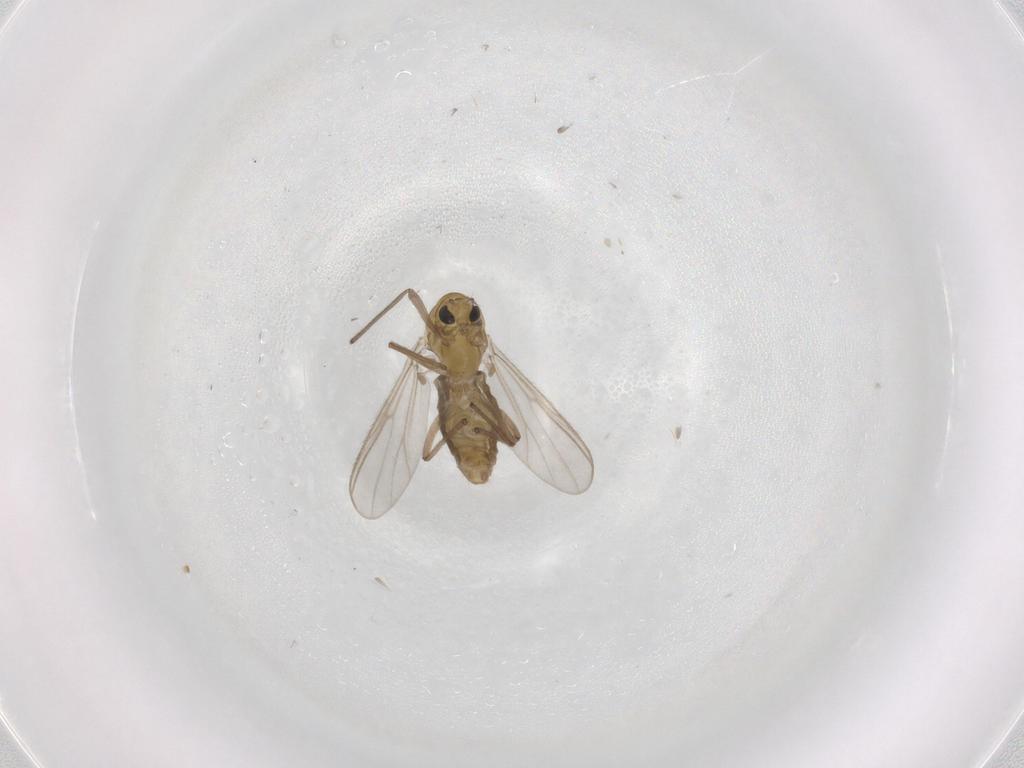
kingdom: Animalia
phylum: Arthropoda
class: Insecta
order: Diptera
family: Chironomidae
